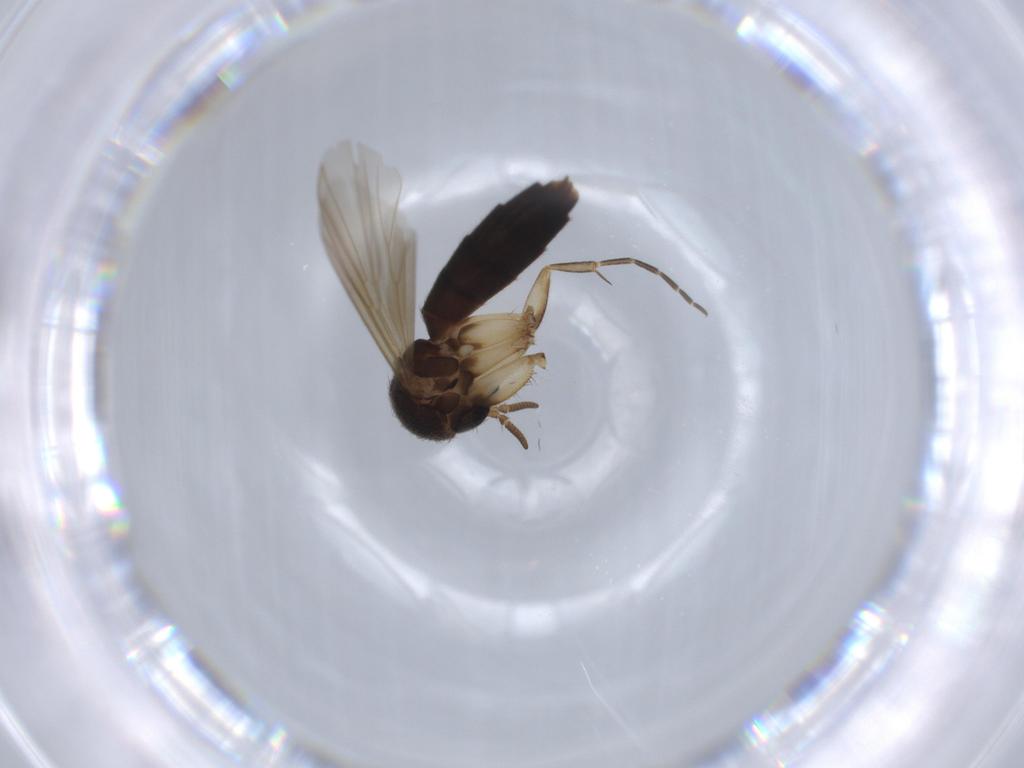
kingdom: Animalia
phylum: Arthropoda
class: Insecta
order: Diptera
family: Mycetophilidae
